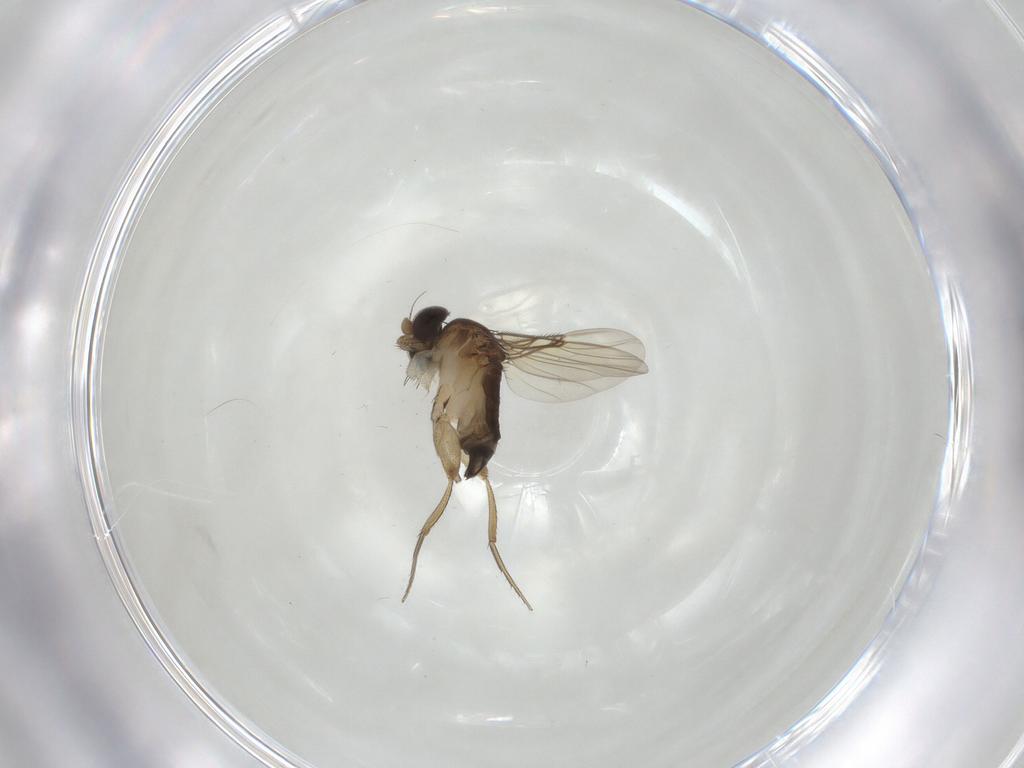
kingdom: Animalia
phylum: Arthropoda
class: Insecta
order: Diptera
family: Phoridae
